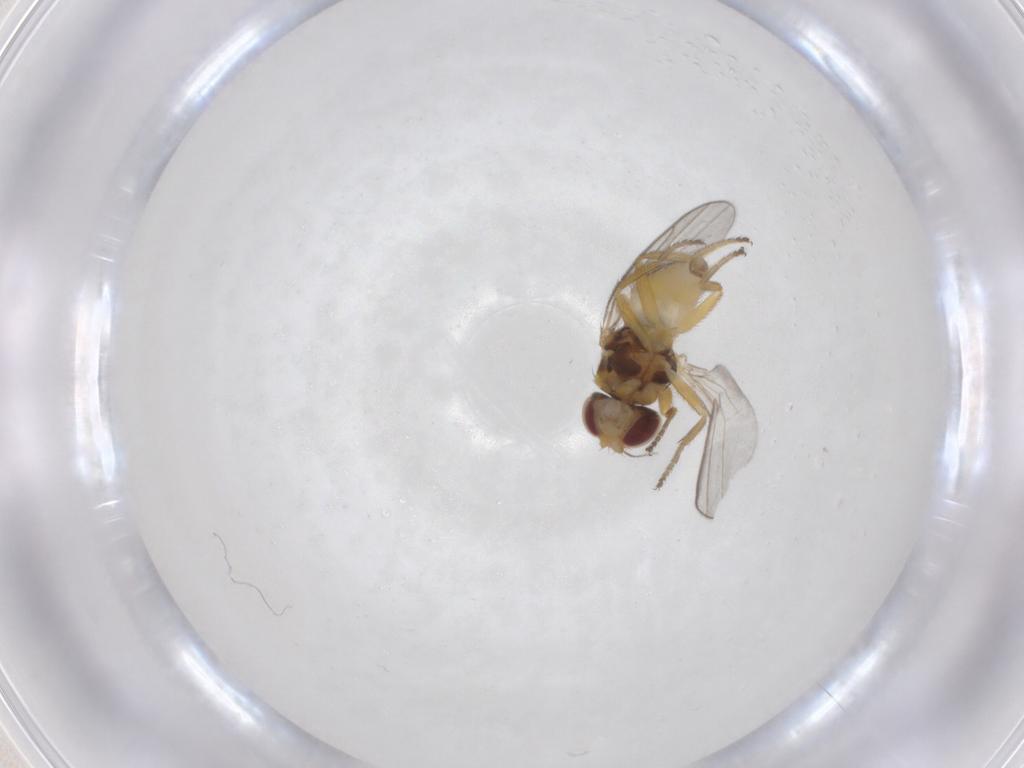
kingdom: Animalia
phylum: Arthropoda
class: Insecta
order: Diptera
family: Chloropidae
